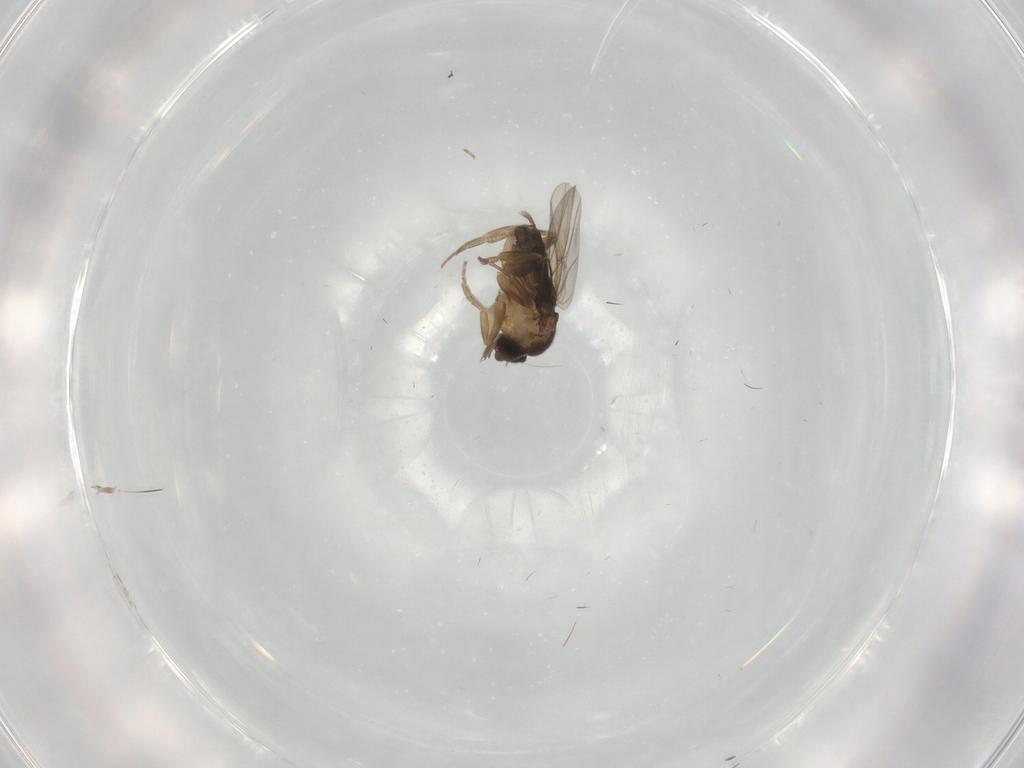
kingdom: Animalia
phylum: Arthropoda
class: Insecta
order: Diptera
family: Phoridae
